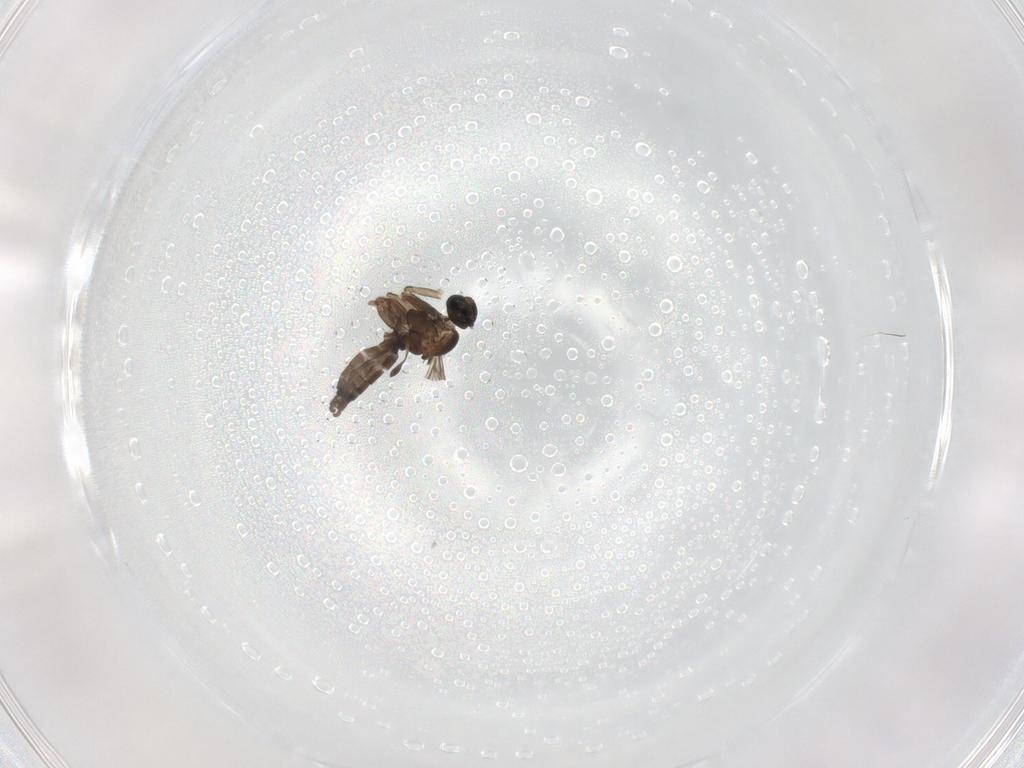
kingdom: Animalia
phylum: Arthropoda
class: Insecta
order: Diptera
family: Sciaridae
